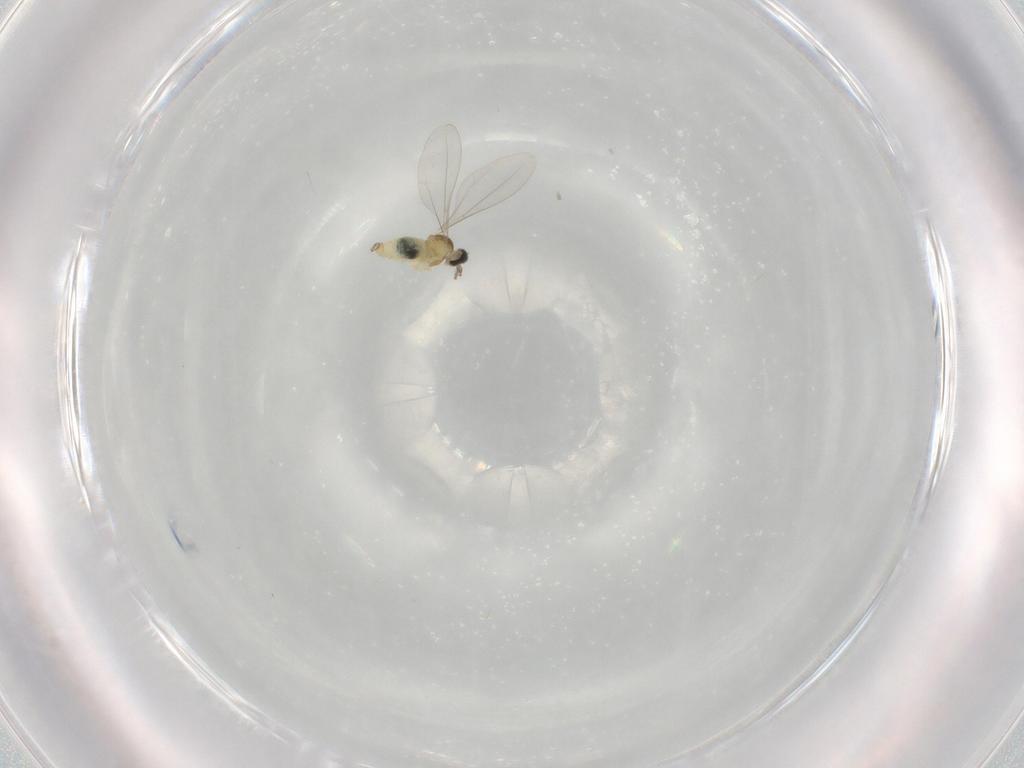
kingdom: Animalia
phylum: Arthropoda
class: Insecta
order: Diptera
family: Cecidomyiidae
